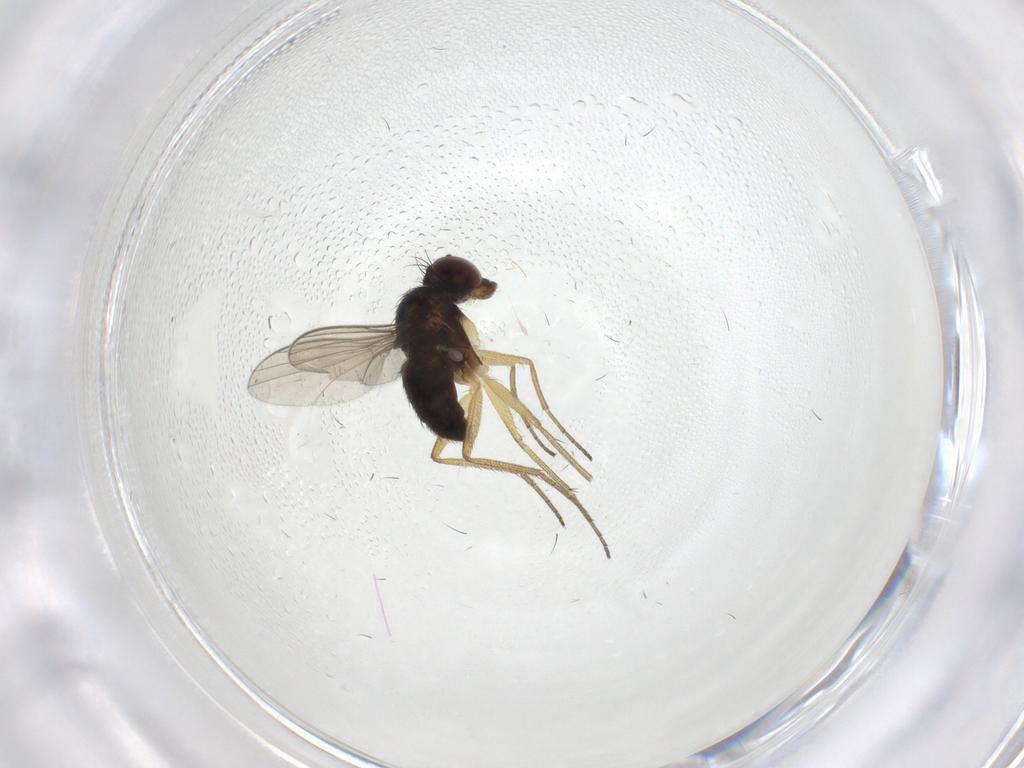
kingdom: Animalia
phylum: Arthropoda
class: Insecta
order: Diptera
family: Dolichopodidae
